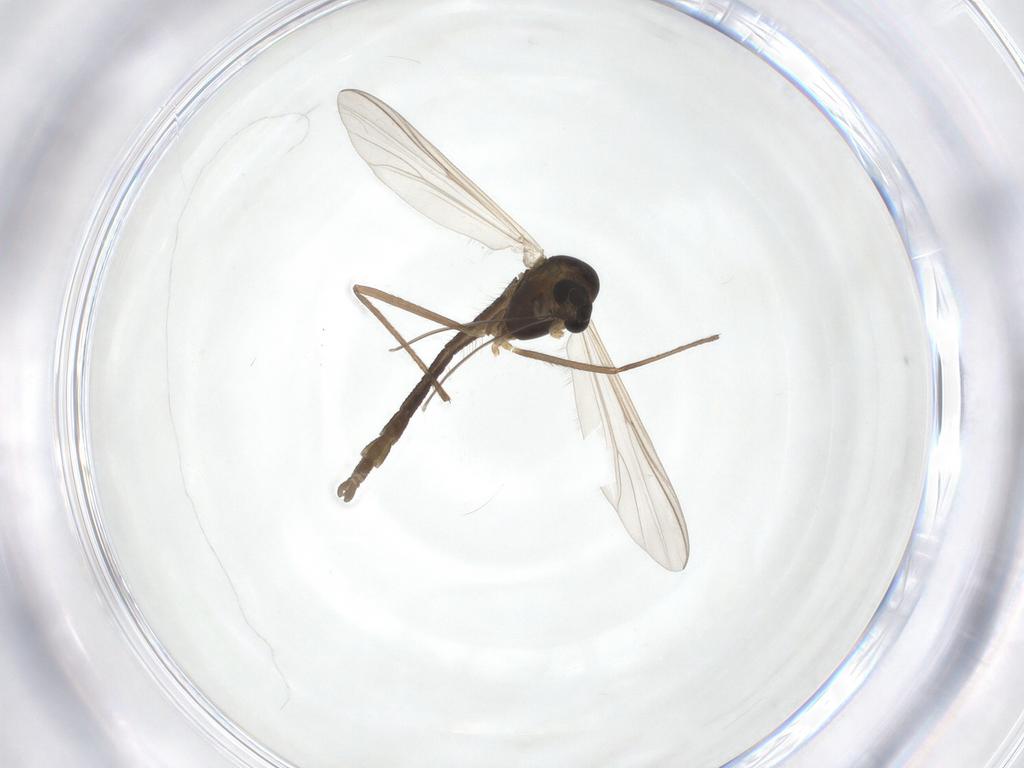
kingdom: Animalia
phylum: Arthropoda
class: Insecta
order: Diptera
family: Chironomidae
